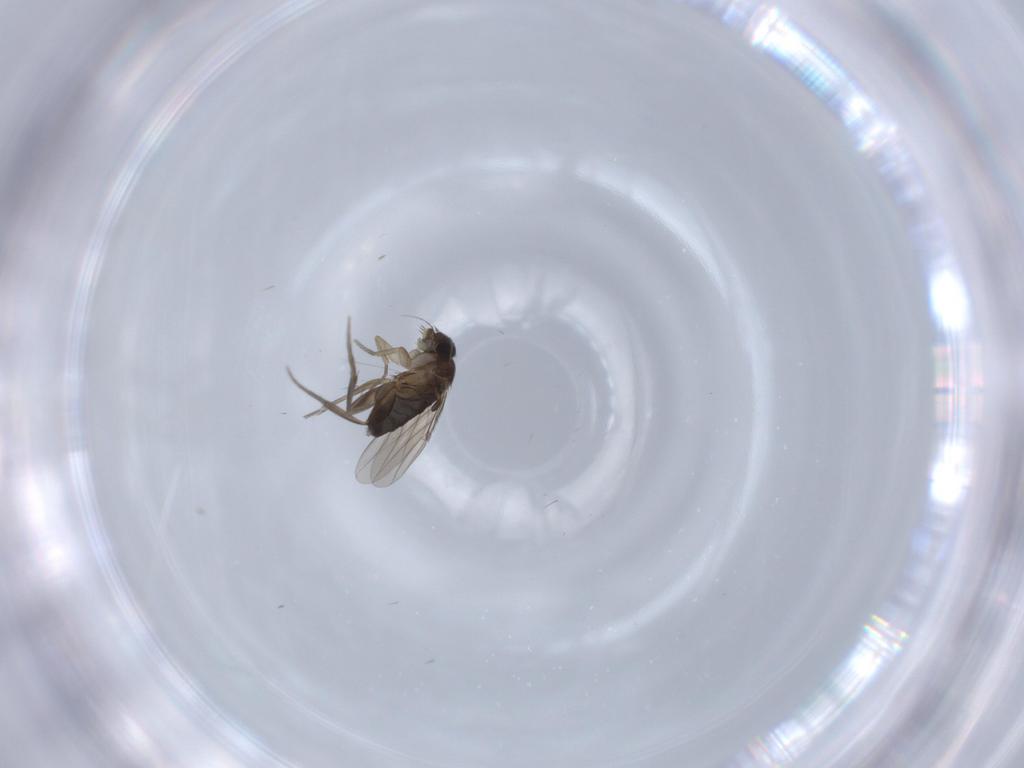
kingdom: Animalia
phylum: Arthropoda
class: Insecta
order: Diptera
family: Phoridae
